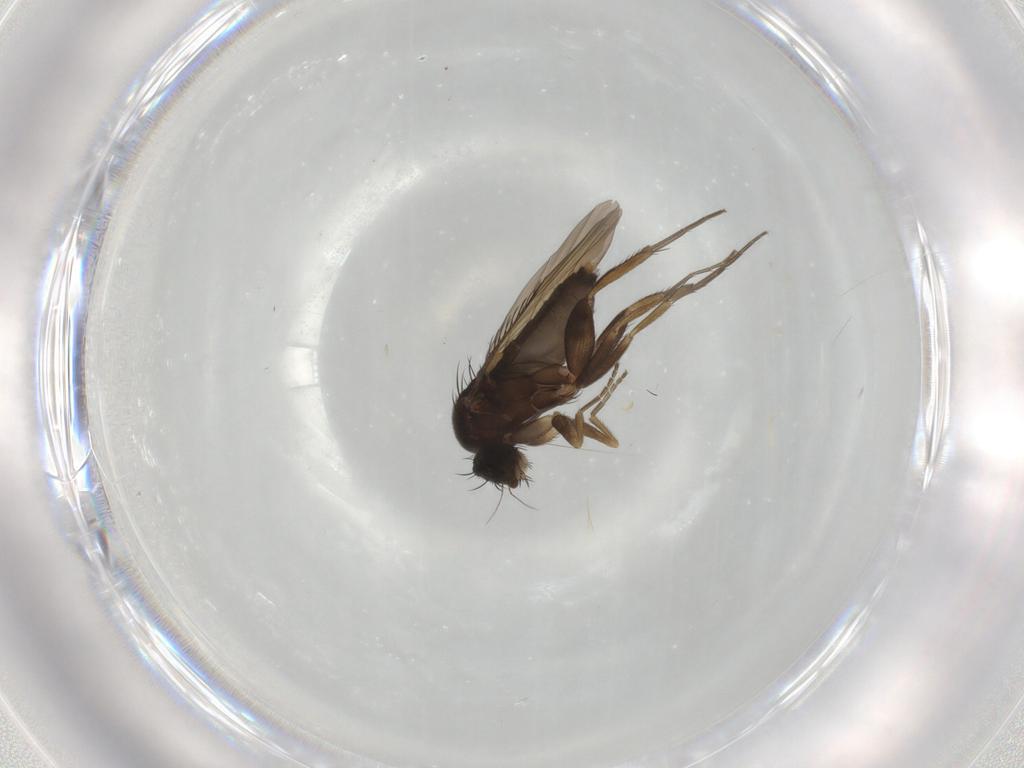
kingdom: Animalia
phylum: Arthropoda
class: Insecta
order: Diptera
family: Phoridae
